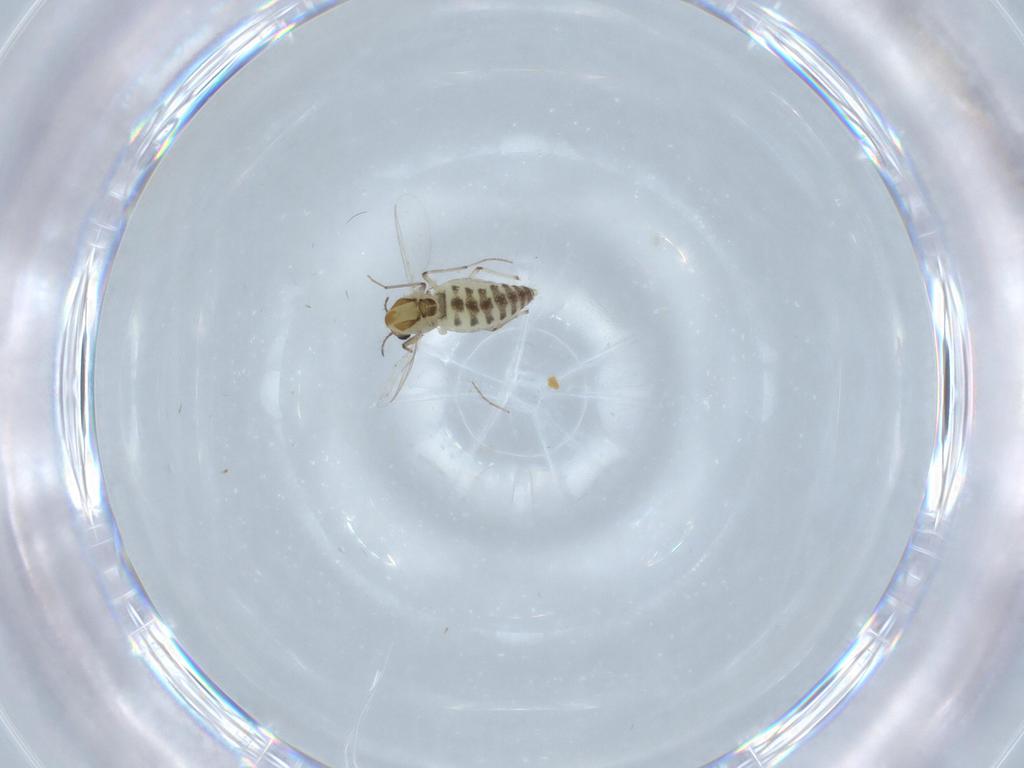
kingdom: Animalia
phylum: Arthropoda
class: Insecta
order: Diptera
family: Chironomidae
